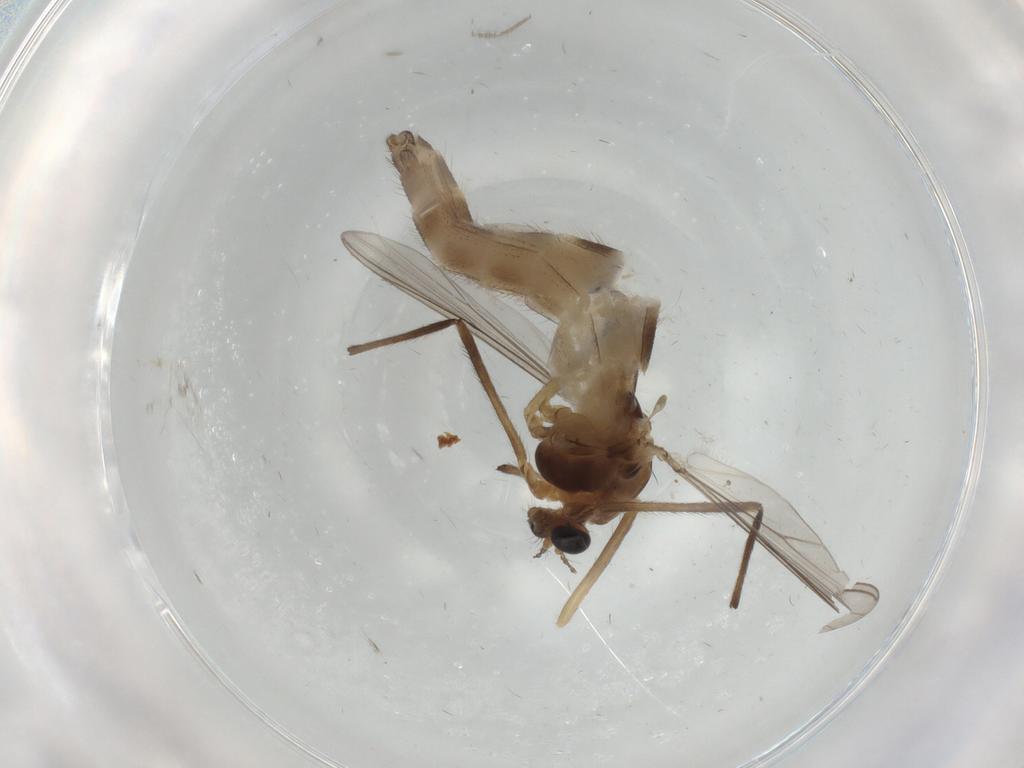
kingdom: Animalia
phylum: Arthropoda
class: Insecta
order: Diptera
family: Chironomidae
